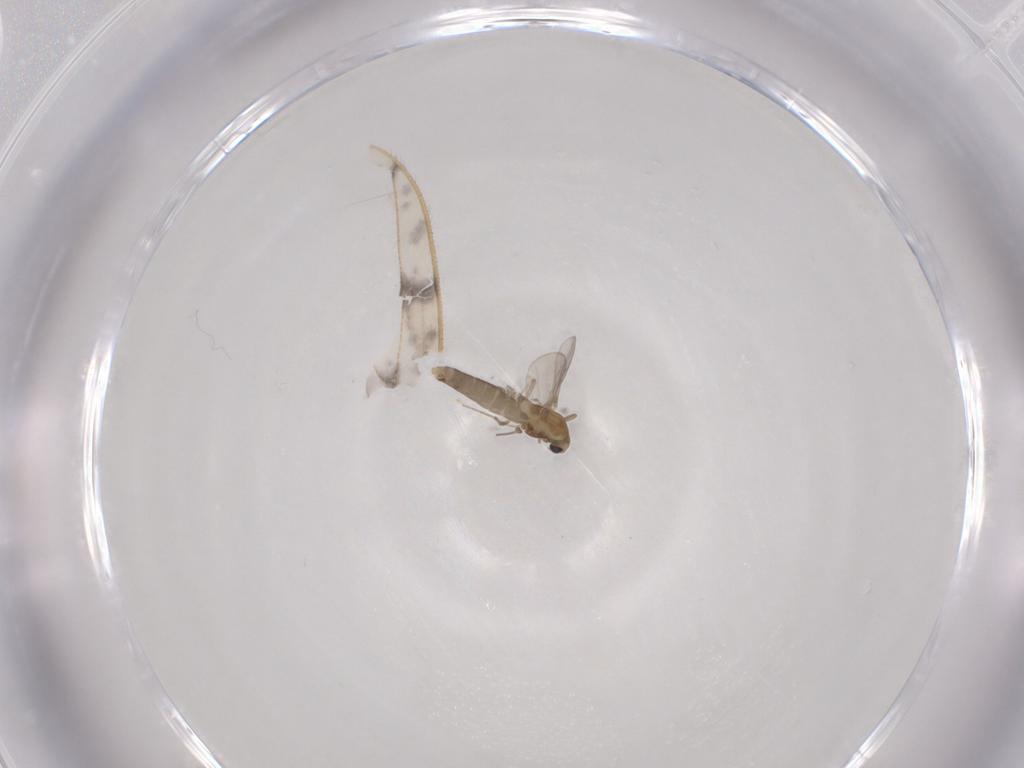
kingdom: Animalia
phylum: Arthropoda
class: Insecta
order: Diptera
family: Chironomidae
